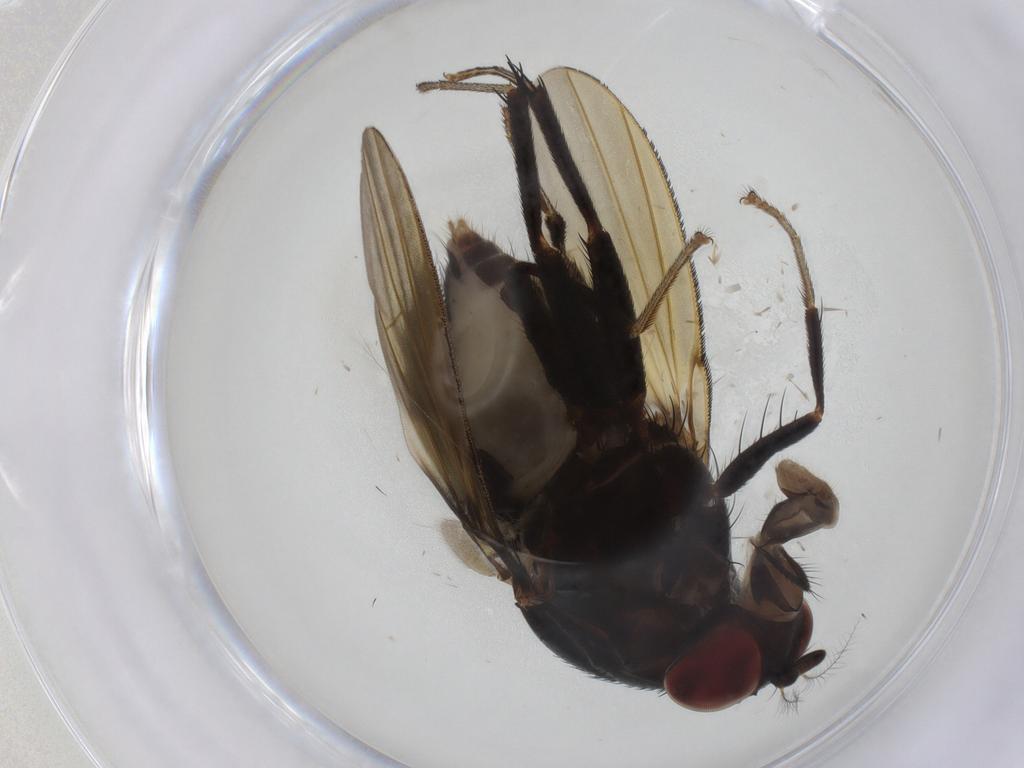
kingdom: Animalia
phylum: Arthropoda
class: Insecta
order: Diptera
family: Lauxaniidae
